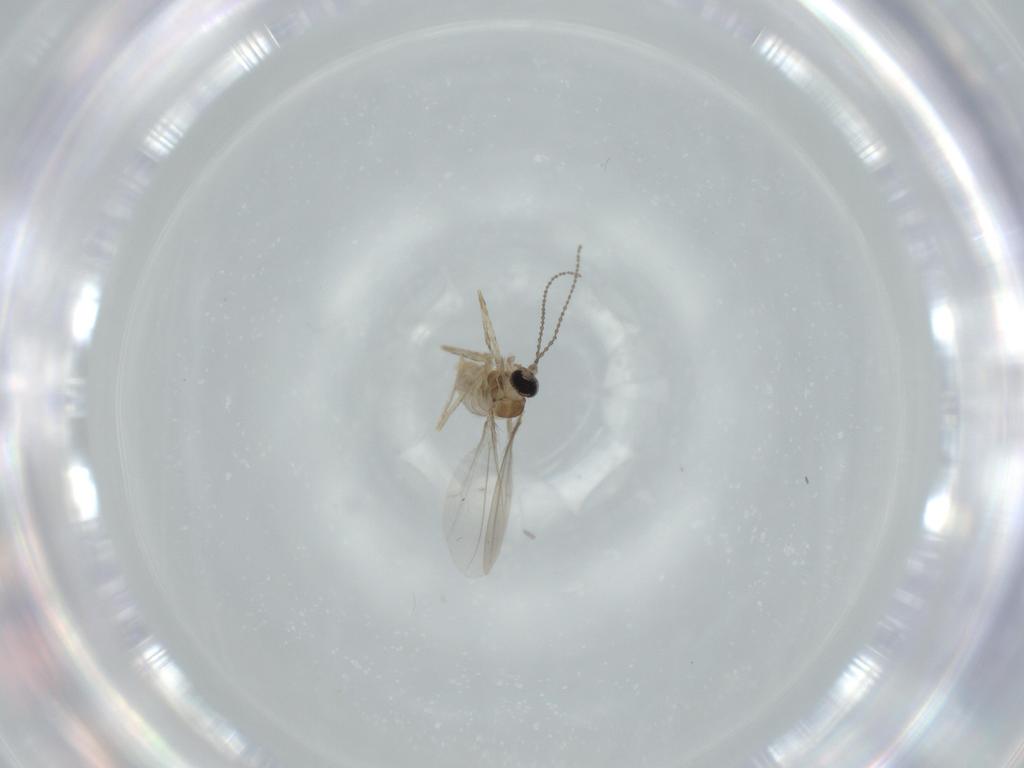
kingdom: Animalia
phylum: Arthropoda
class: Insecta
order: Diptera
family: Cecidomyiidae
